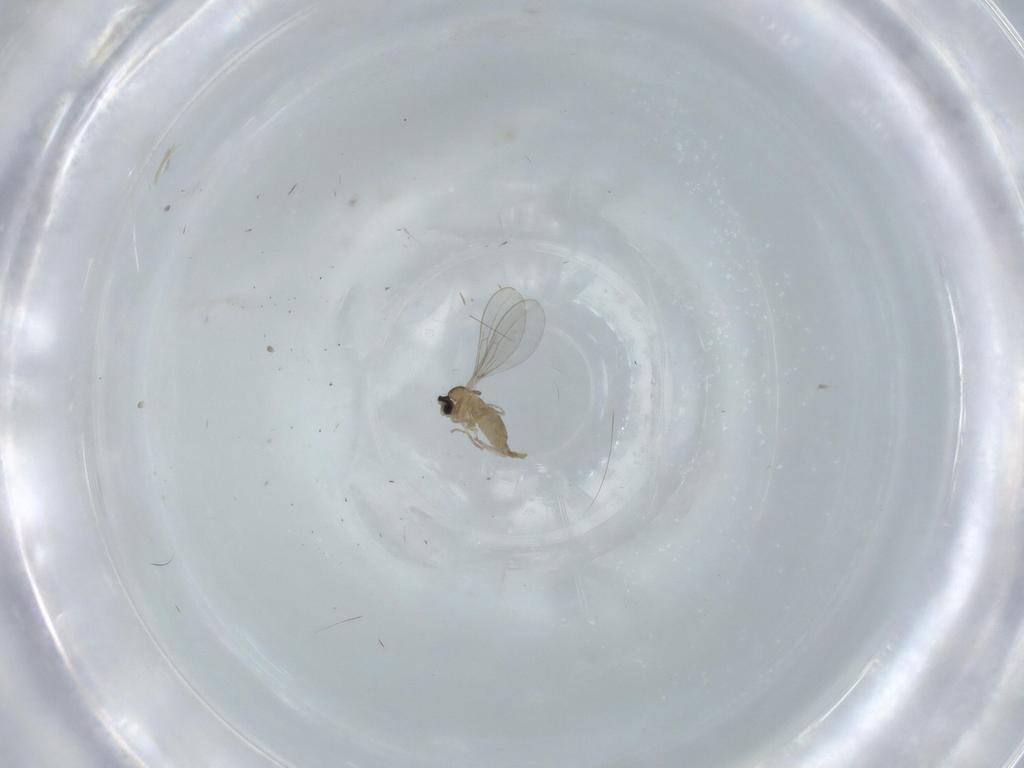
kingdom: Animalia
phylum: Arthropoda
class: Insecta
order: Diptera
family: Cecidomyiidae
